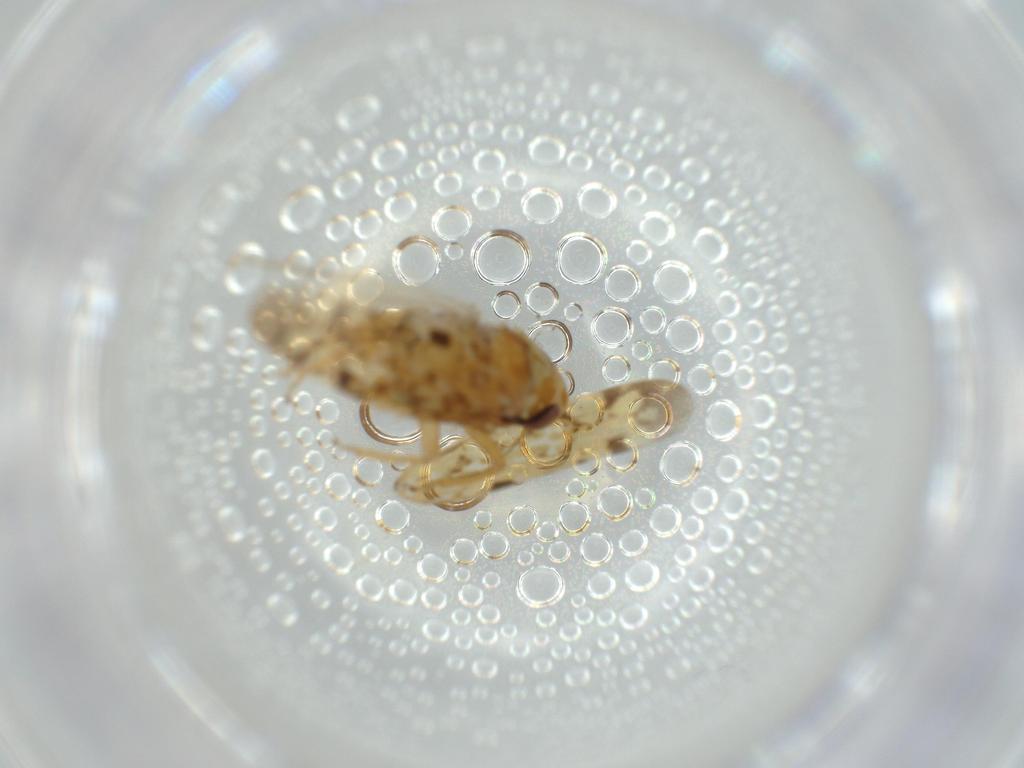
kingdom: Animalia
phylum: Arthropoda
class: Insecta
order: Hemiptera
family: Cicadellidae
